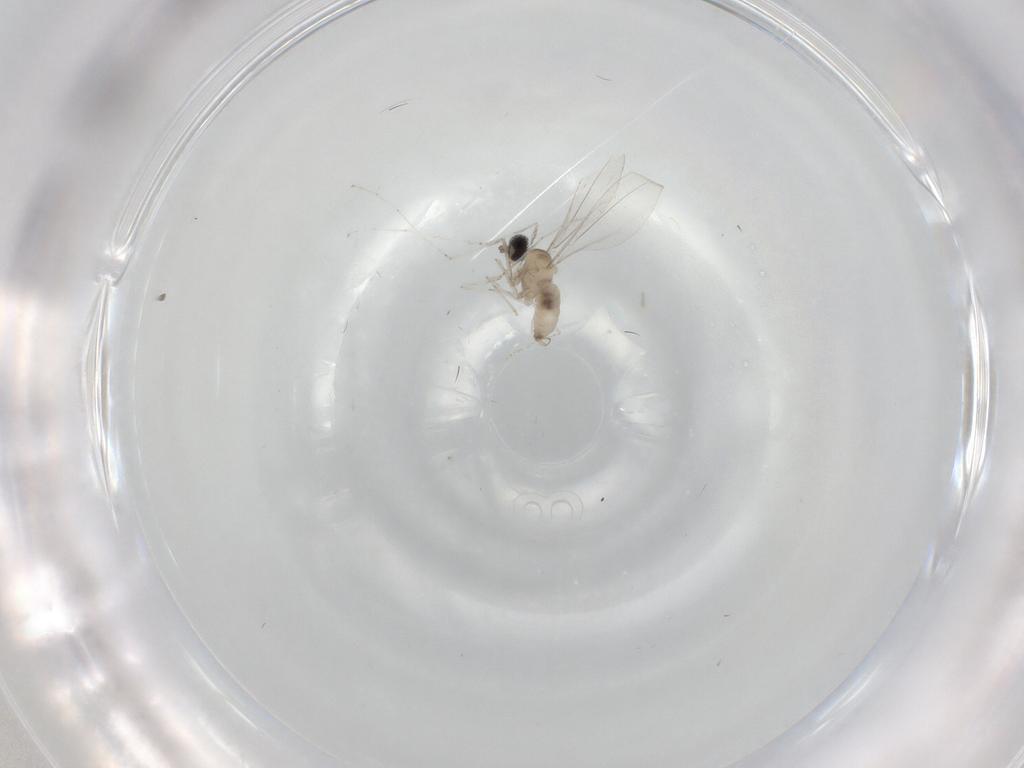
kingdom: Animalia
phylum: Arthropoda
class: Insecta
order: Diptera
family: Cecidomyiidae
